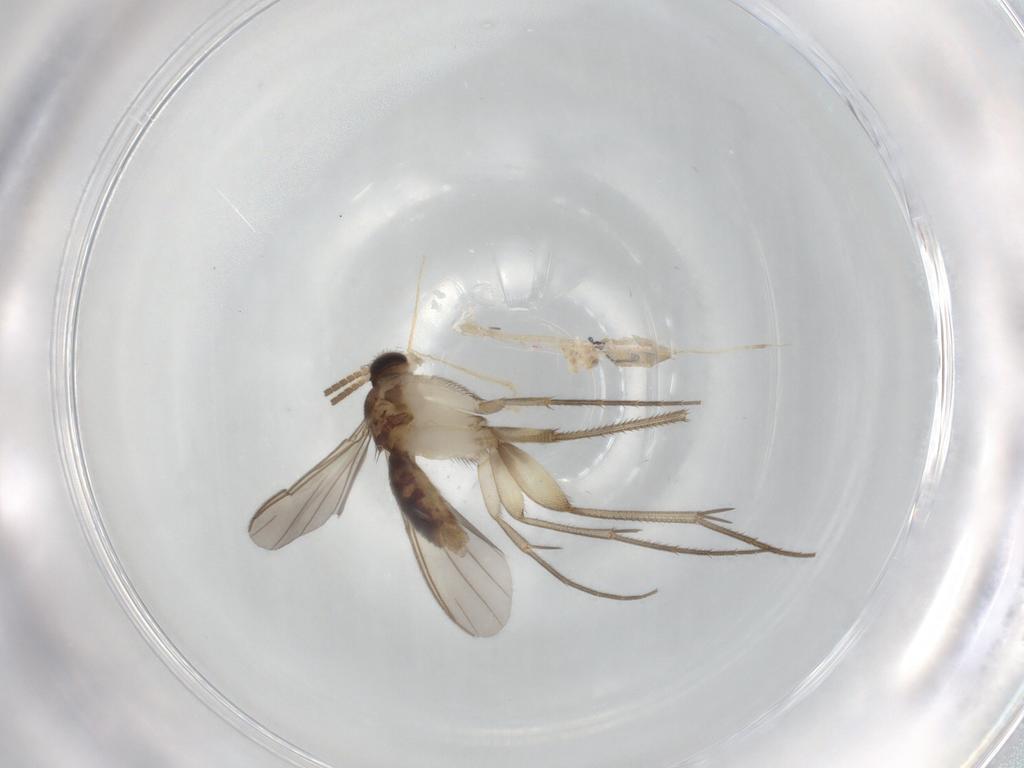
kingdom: Animalia
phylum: Arthropoda
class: Insecta
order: Diptera
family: Mycetophilidae
